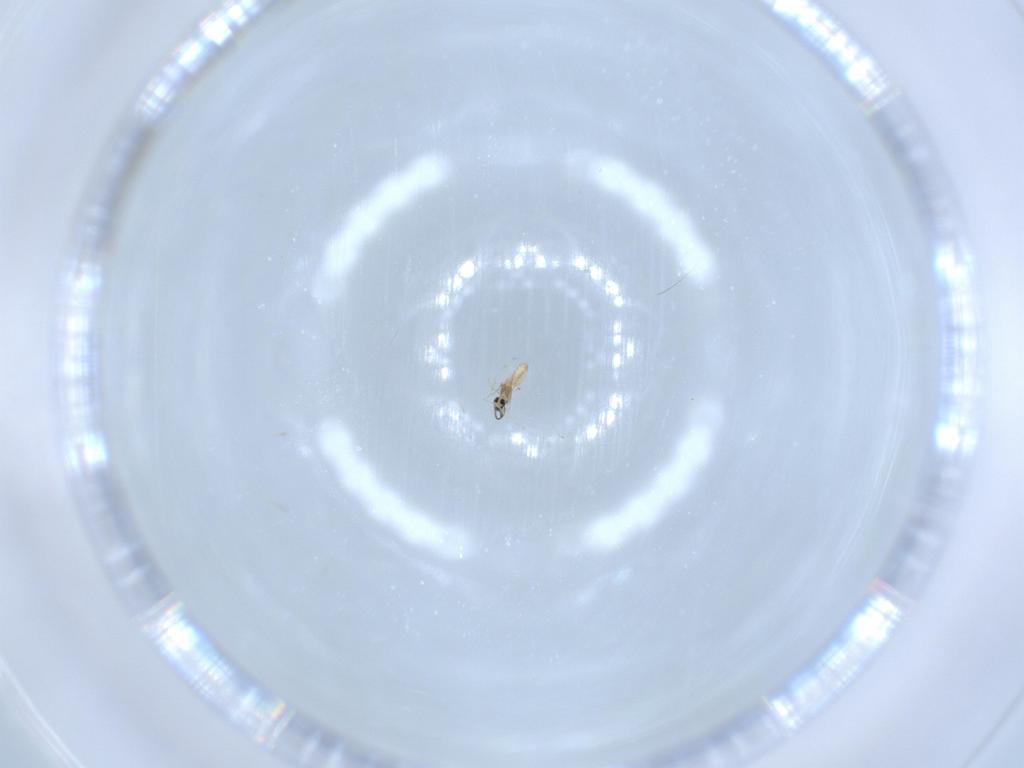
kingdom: Animalia
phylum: Arthropoda
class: Insecta
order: Diptera
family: Cecidomyiidae
